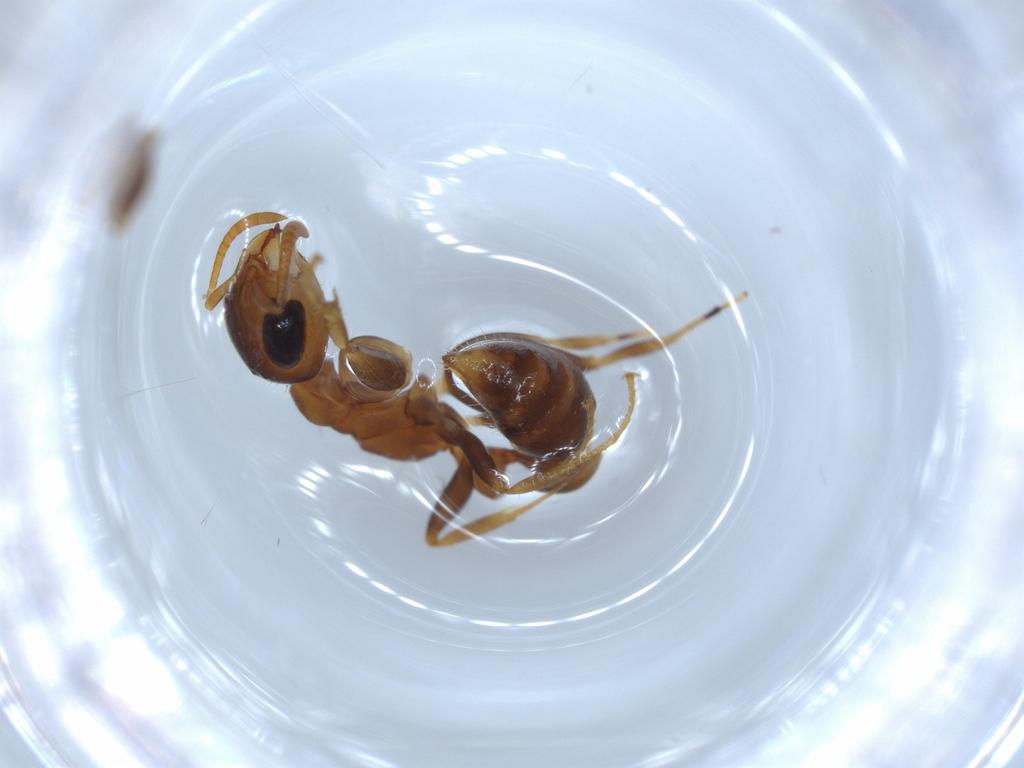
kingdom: Animalia
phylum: Arthropoda
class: Insecta
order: Hymenoptera
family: Formicidae
